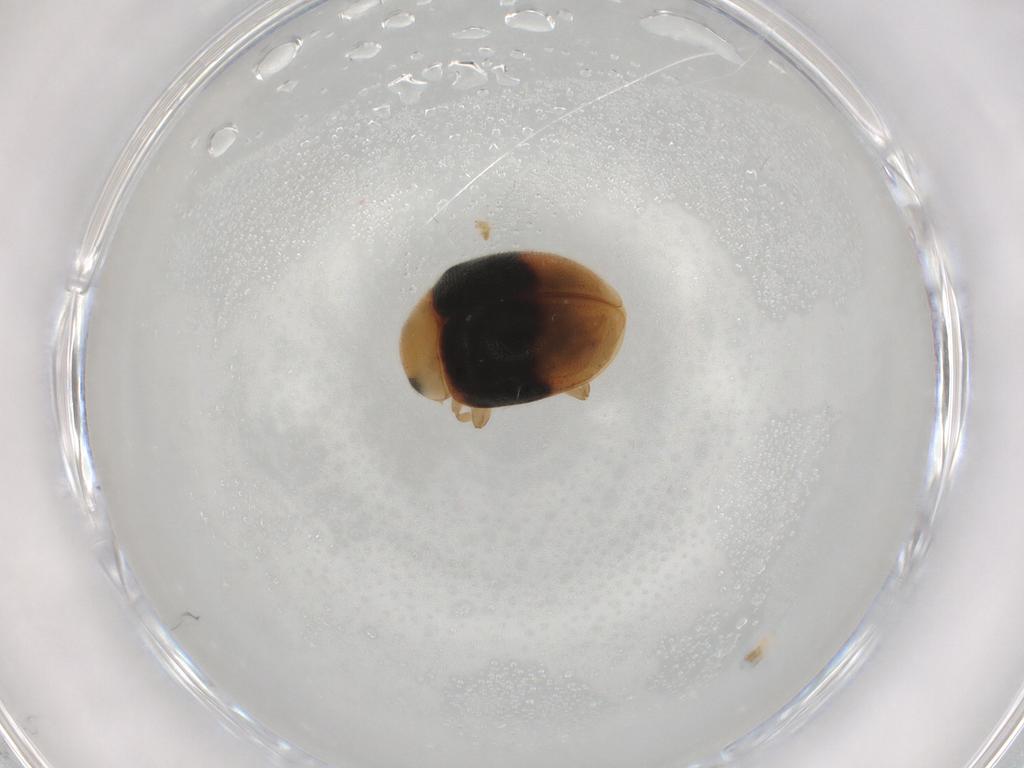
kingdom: Animalia
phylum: Arthropoda
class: Insecta
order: Coleoptera
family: Coccinellidae
